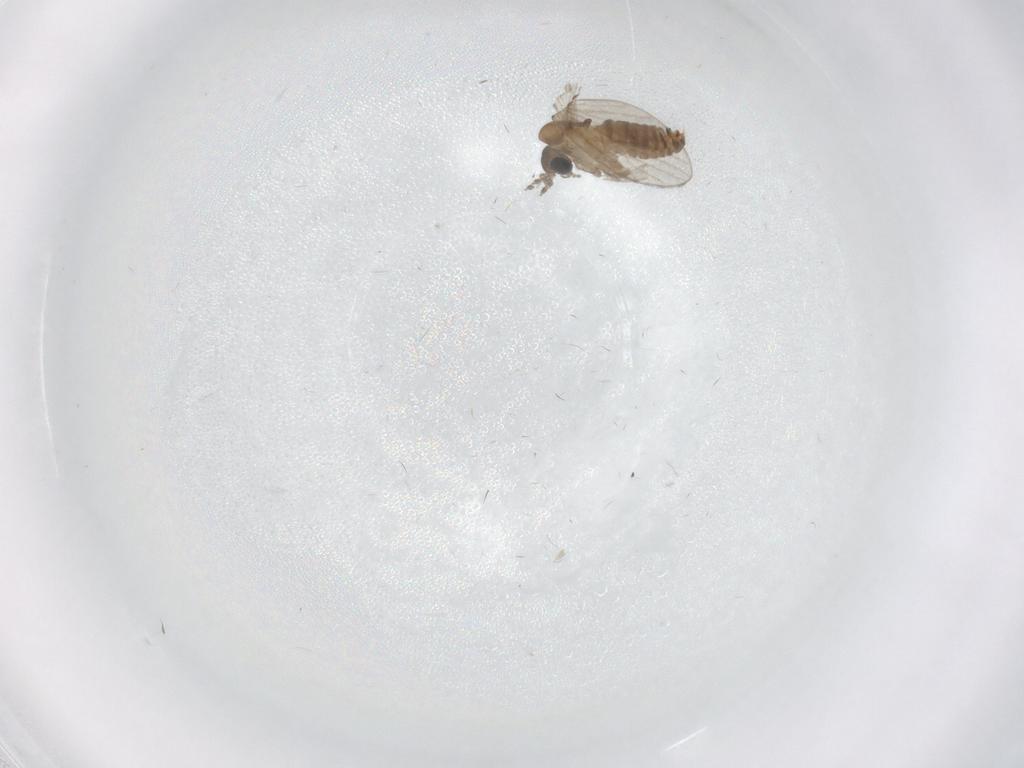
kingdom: Animalia
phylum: Arthropoda
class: Insecta
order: Diptera
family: Psychodidae
